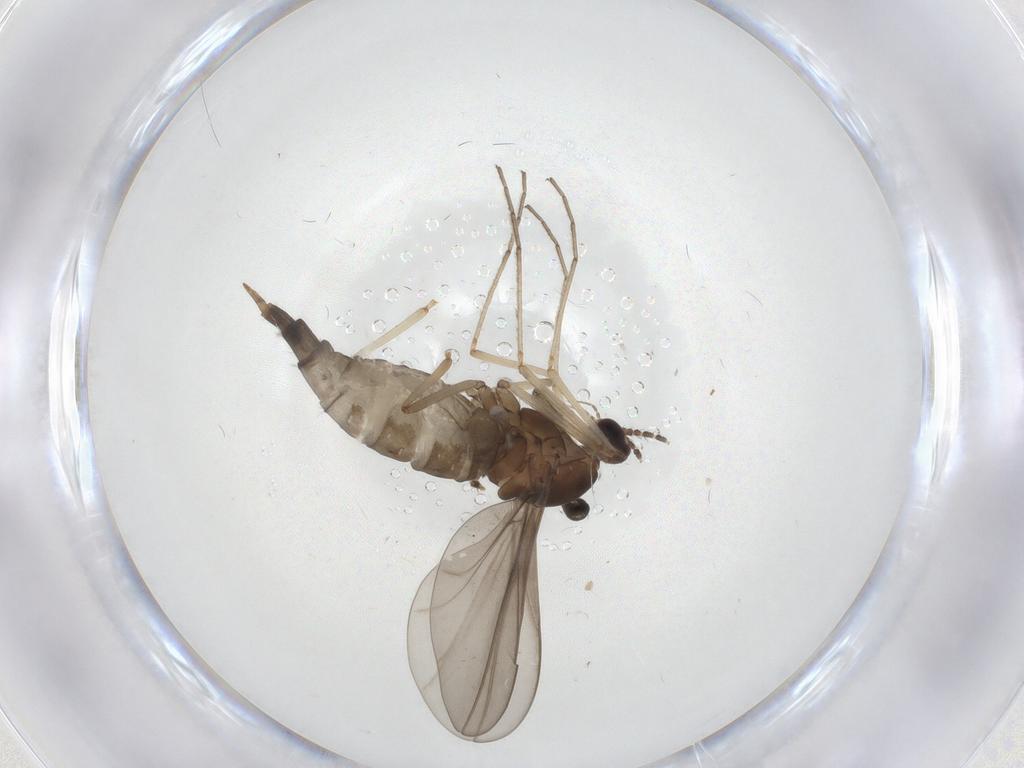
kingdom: Animalia
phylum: Arthropoda
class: Insecta
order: Diptera
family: Cecidomyiidae
